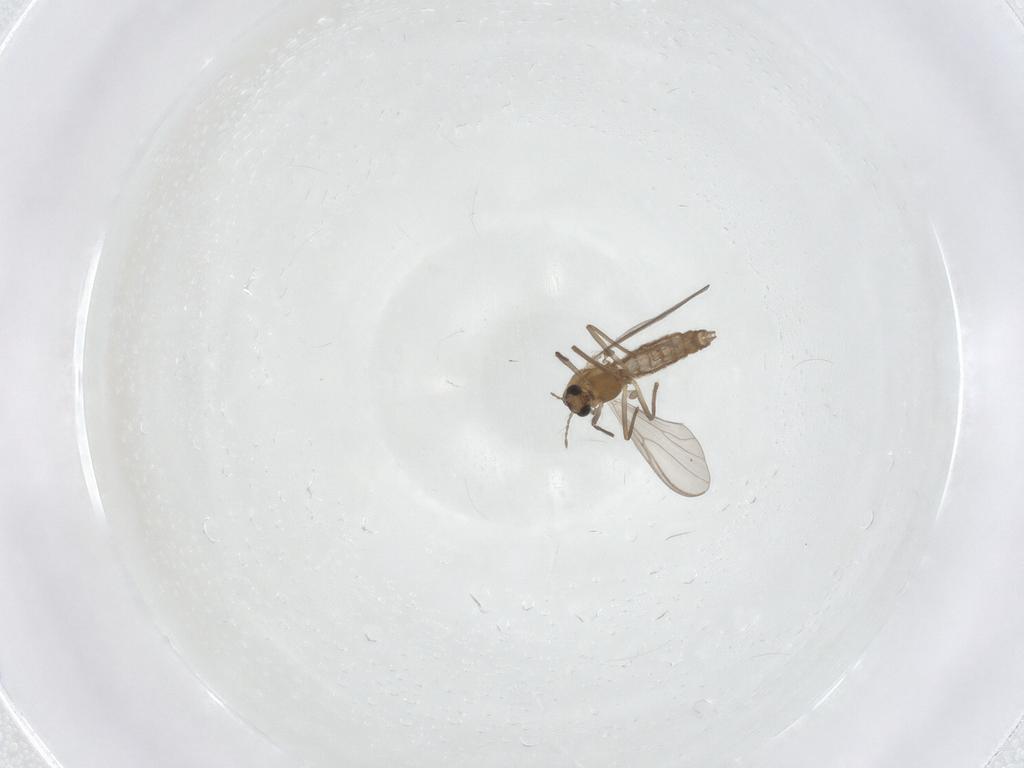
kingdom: Animalia
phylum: Arthropoda
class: Insecta
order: Diptera
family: Chironomidae
